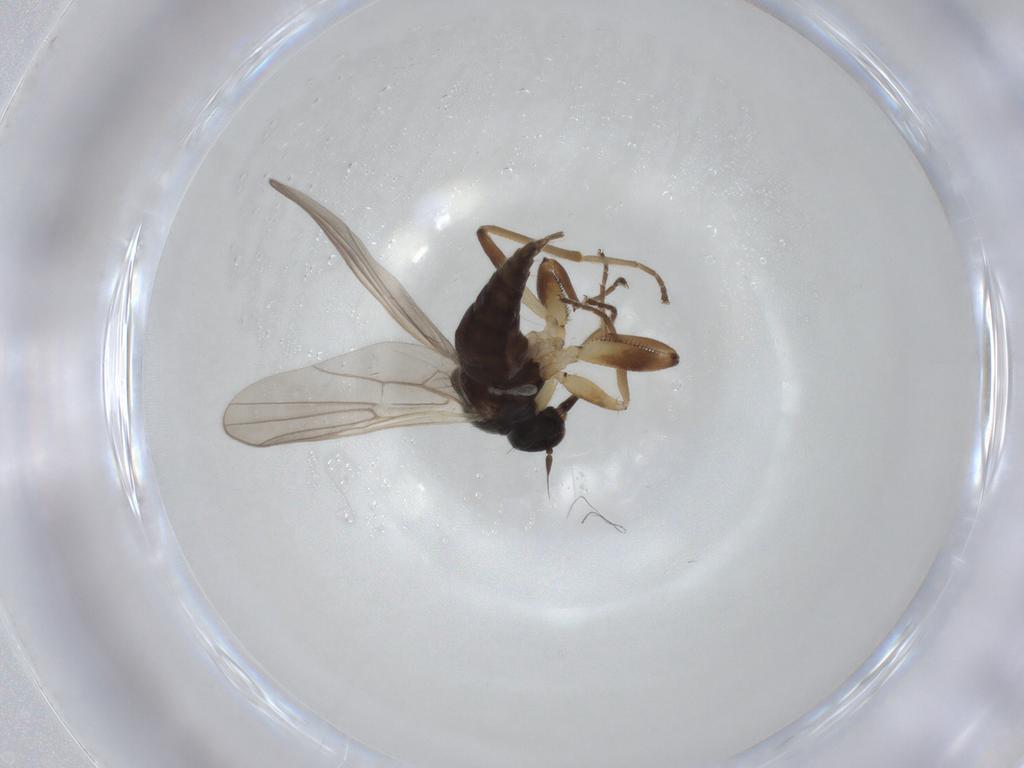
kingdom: Animalia
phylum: Arthropoda
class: Insecta
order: Diptera
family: Hybotidae
